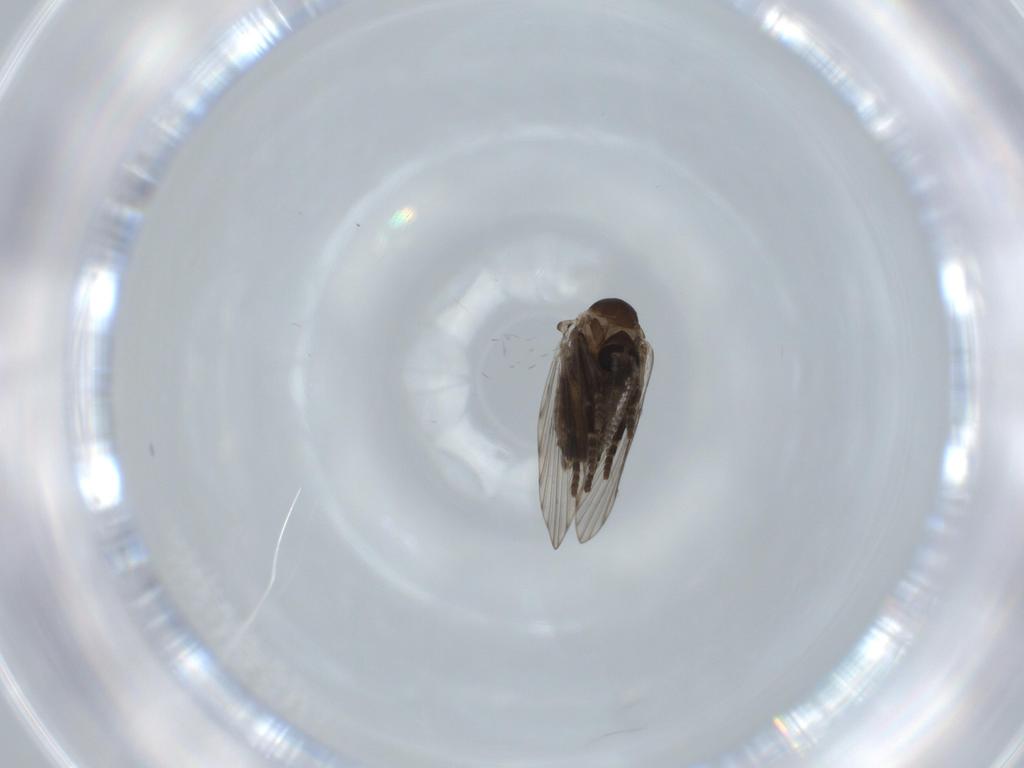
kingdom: Animalia
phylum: Arthropoda
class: Insecta
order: Diptera
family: Psychodidae
